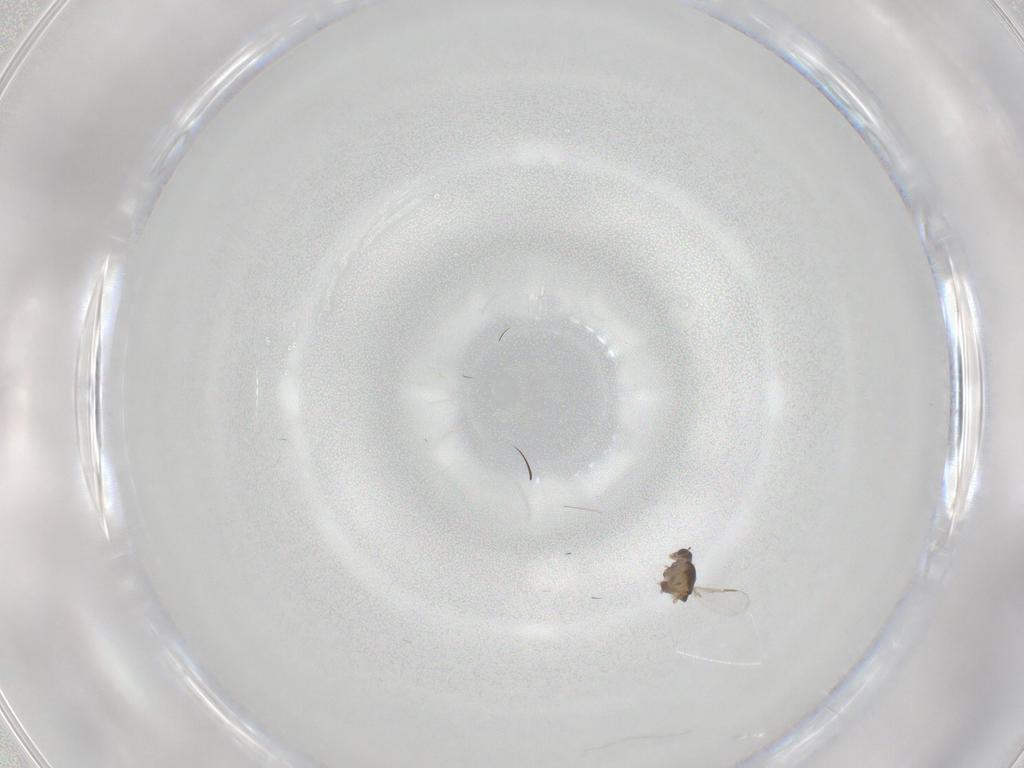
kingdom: Animalia
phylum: Arthropoda
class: Insecta
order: Diptera
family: Chironomidae
